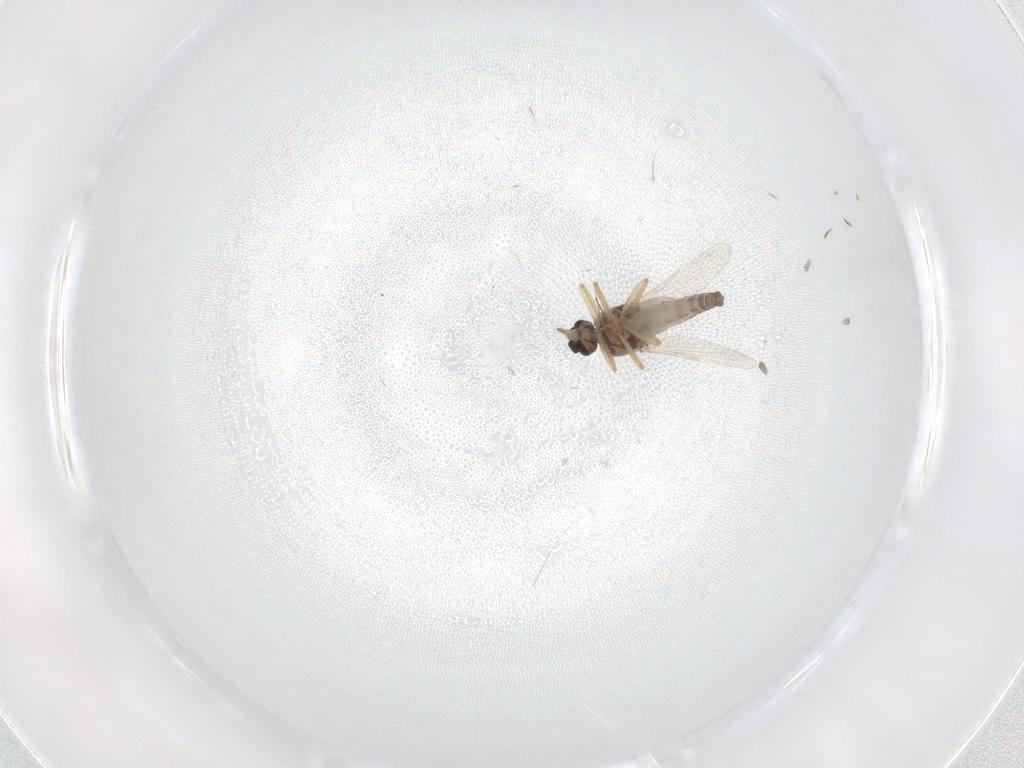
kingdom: Animalia
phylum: Arthropoda
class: Insecta
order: Diptera
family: Ceratopogonidae
